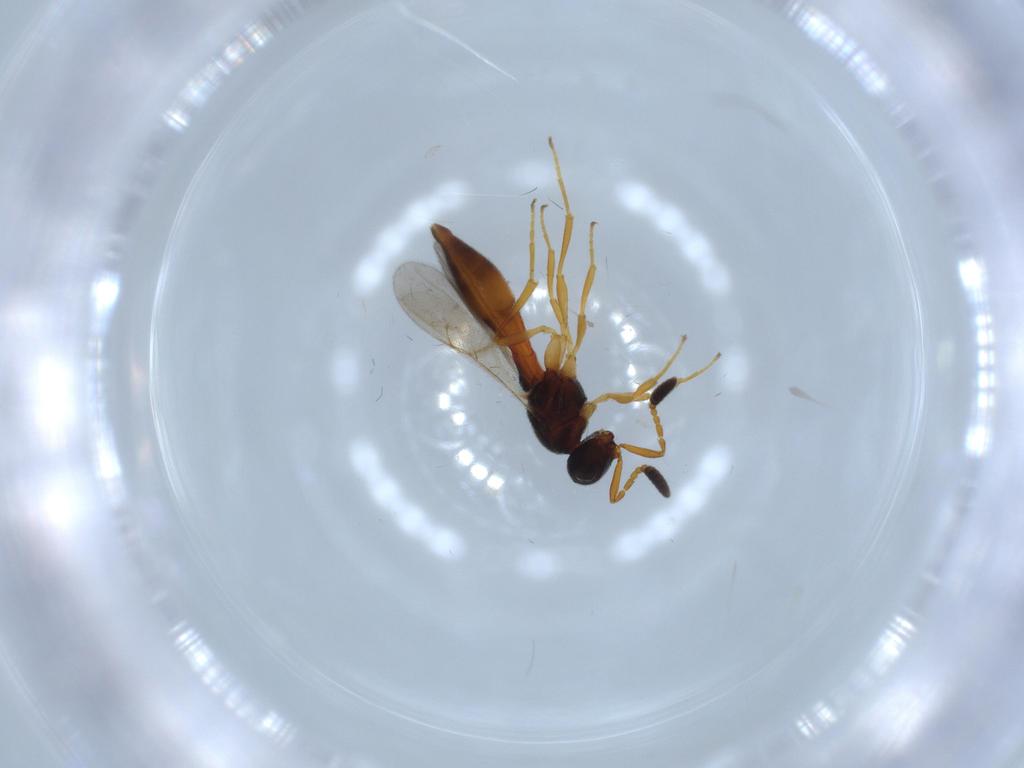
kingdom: Animalia
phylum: Arthropoda
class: Insecta
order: Hymenoptera
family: Scelionidae
